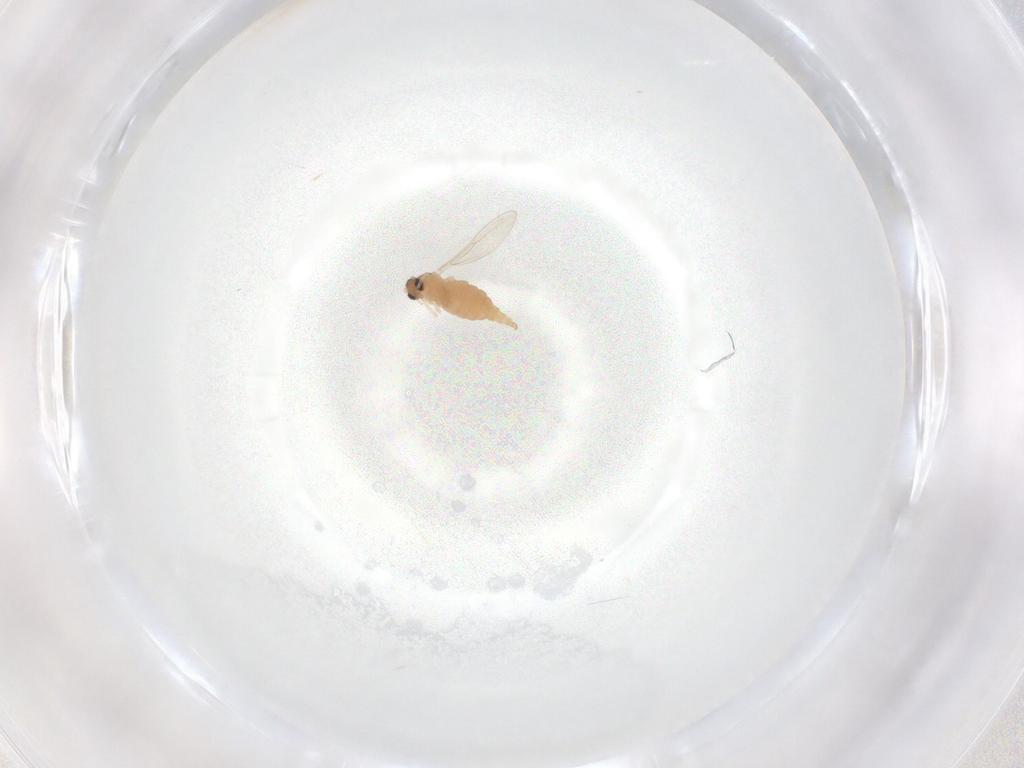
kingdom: Animalia
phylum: Arthropoda
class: Insecta
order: Diptera
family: Cecidomyiidae
